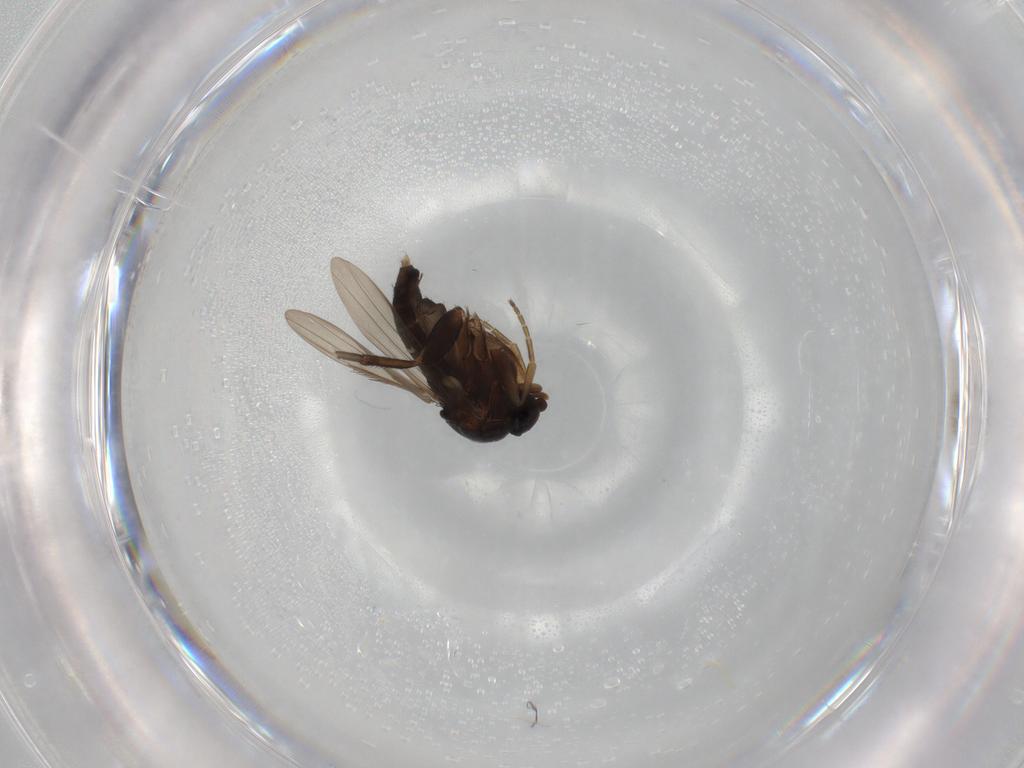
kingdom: Animalia
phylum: Arthropoda
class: Insecta
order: Diptera
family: Phoridae
